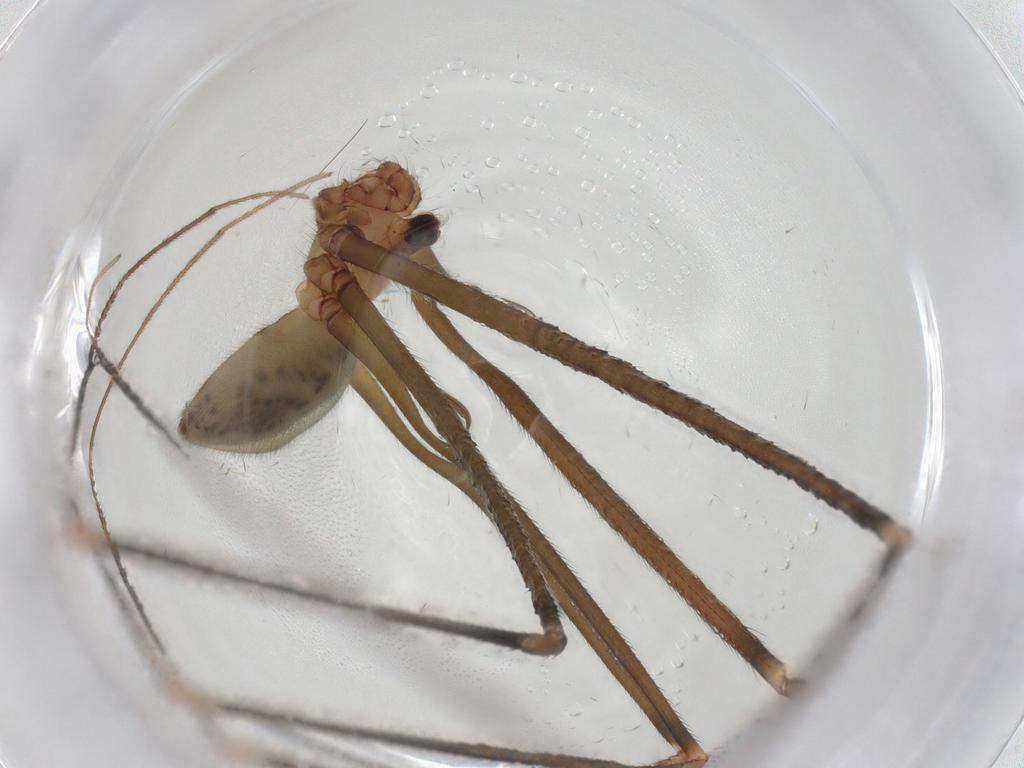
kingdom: Animalia
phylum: Arthropoda
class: Arachnida
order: Araneae
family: Pholcidae
